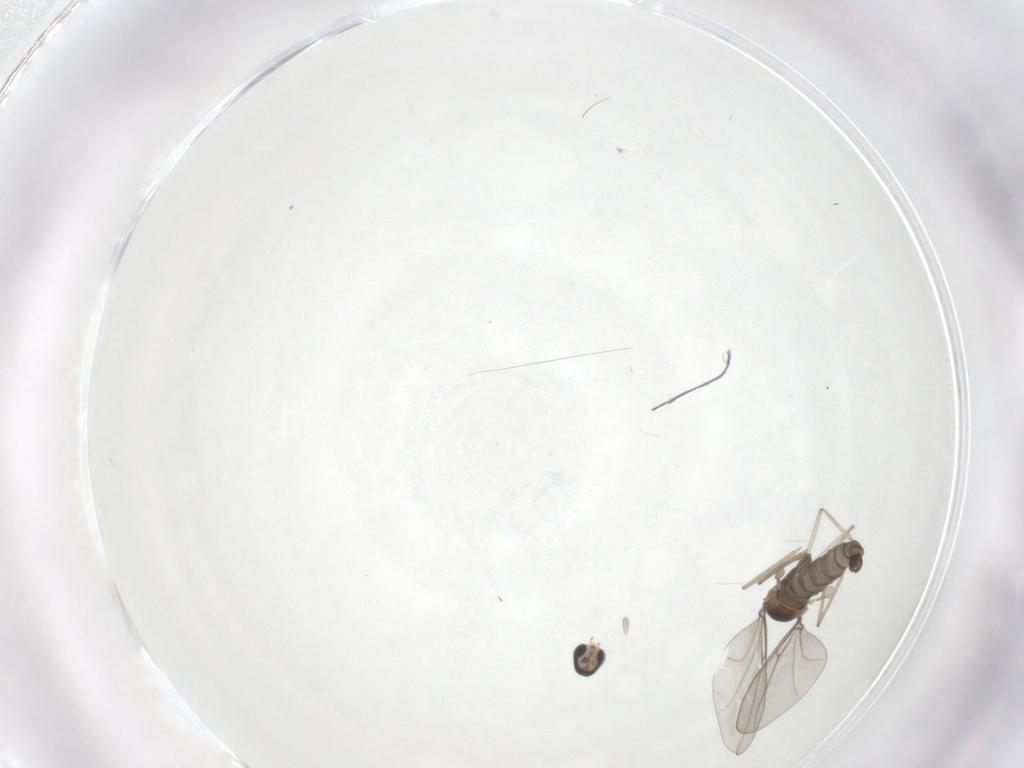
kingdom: Animalia
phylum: Arthropoda
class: Insecta
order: Diptera
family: Cecidomyiidae
